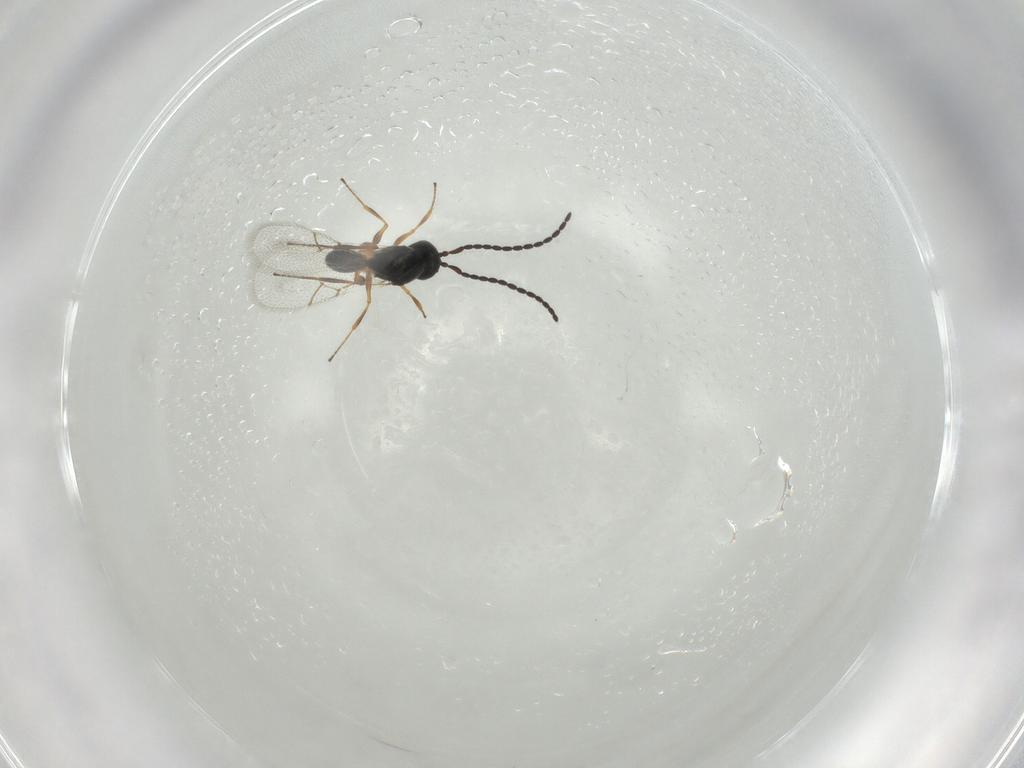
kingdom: Animalia
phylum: Arthropoda
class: Insecta
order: Hymenoptera
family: Figitidae
